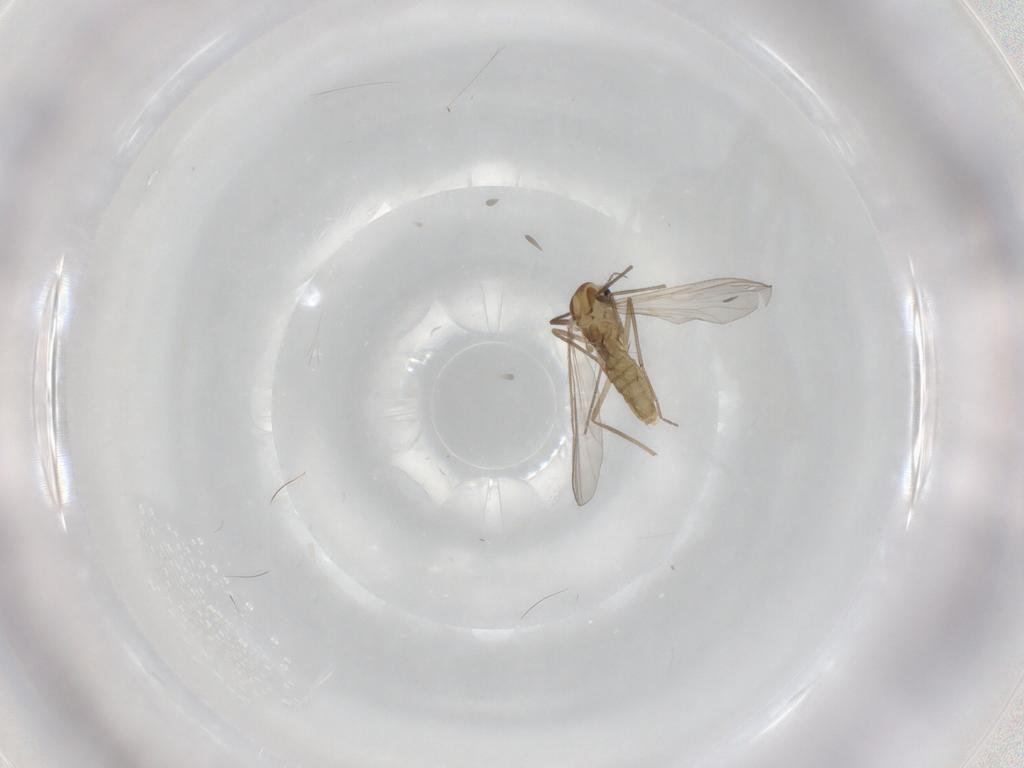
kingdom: Animalia
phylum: Arthropoda
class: Insecta
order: Diptera
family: Chironomidae
